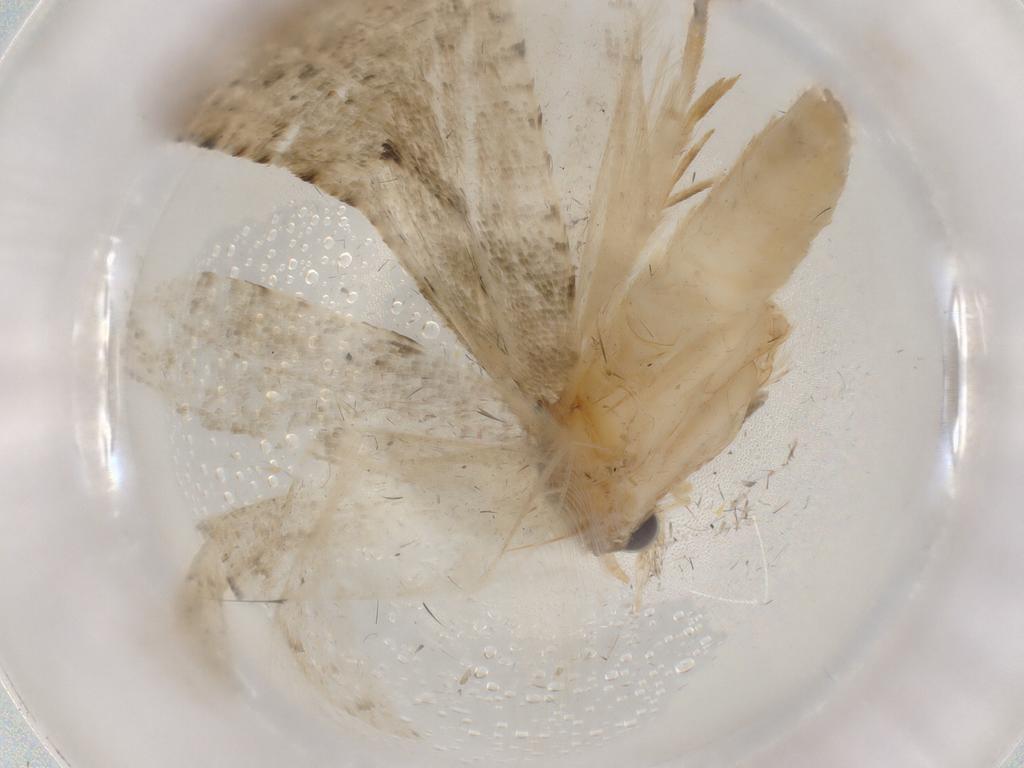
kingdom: Animalia
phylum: Arthropoda
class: Insecta
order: Lepidoptera
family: Tortricidae
